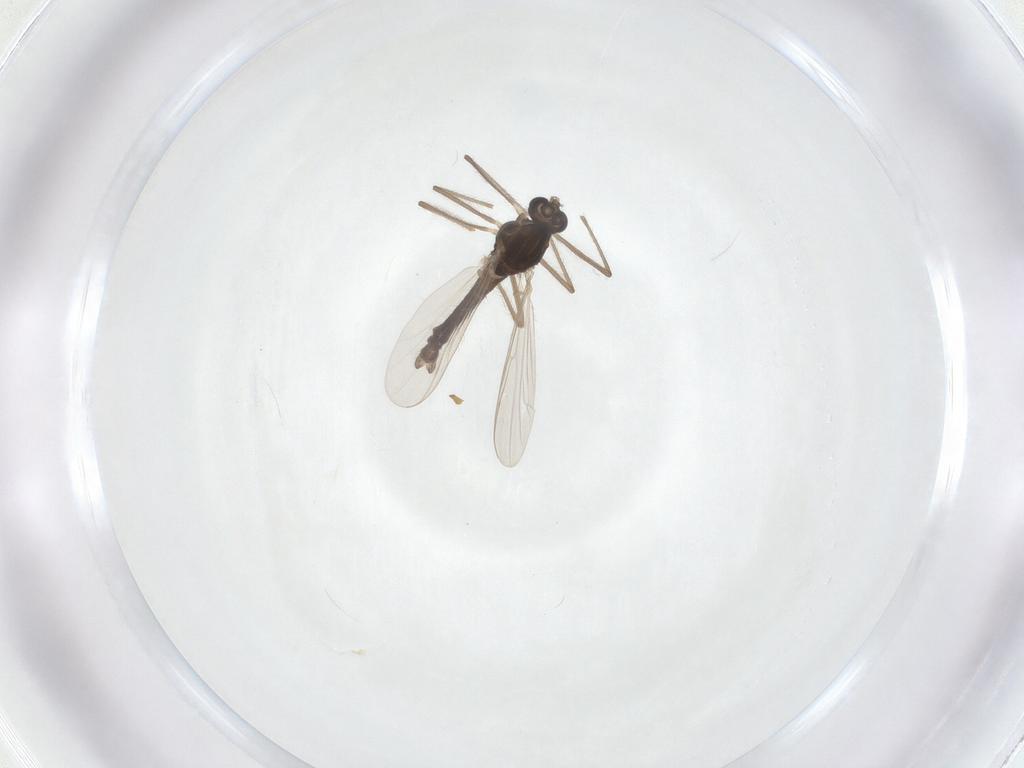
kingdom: Animalia
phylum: Arthropoda
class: Insecta
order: Diptera
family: Chironomidae
